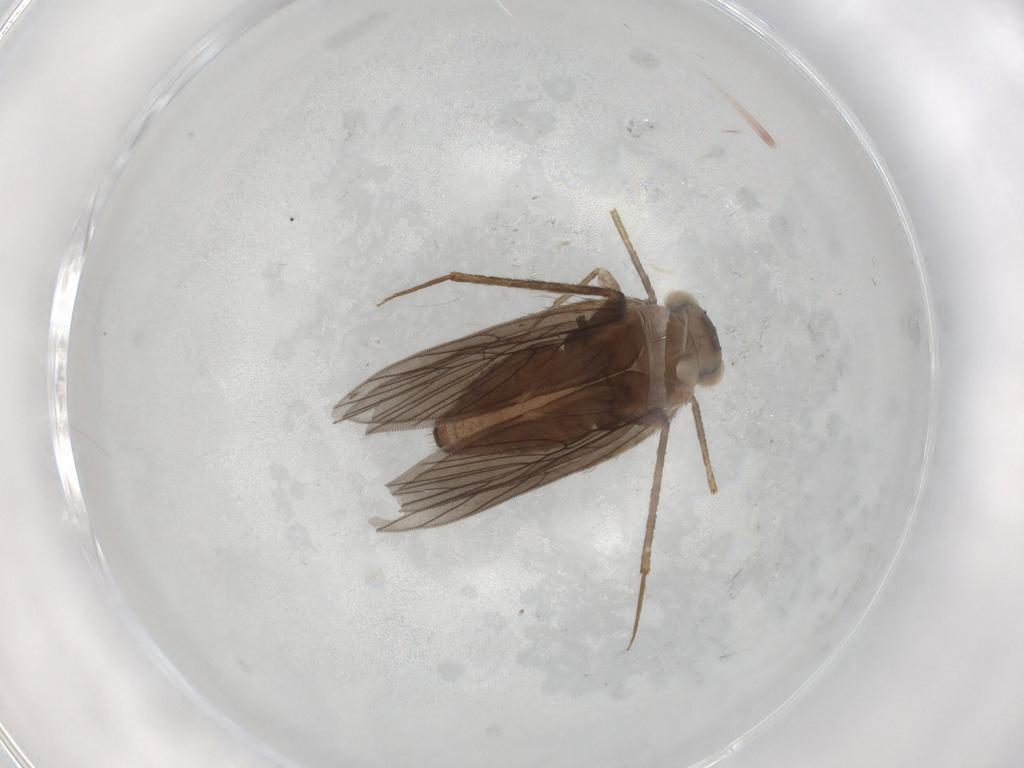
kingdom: Animalia
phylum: Arthropoda
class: Insecta
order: Psocodea
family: Lepidopsocidae
